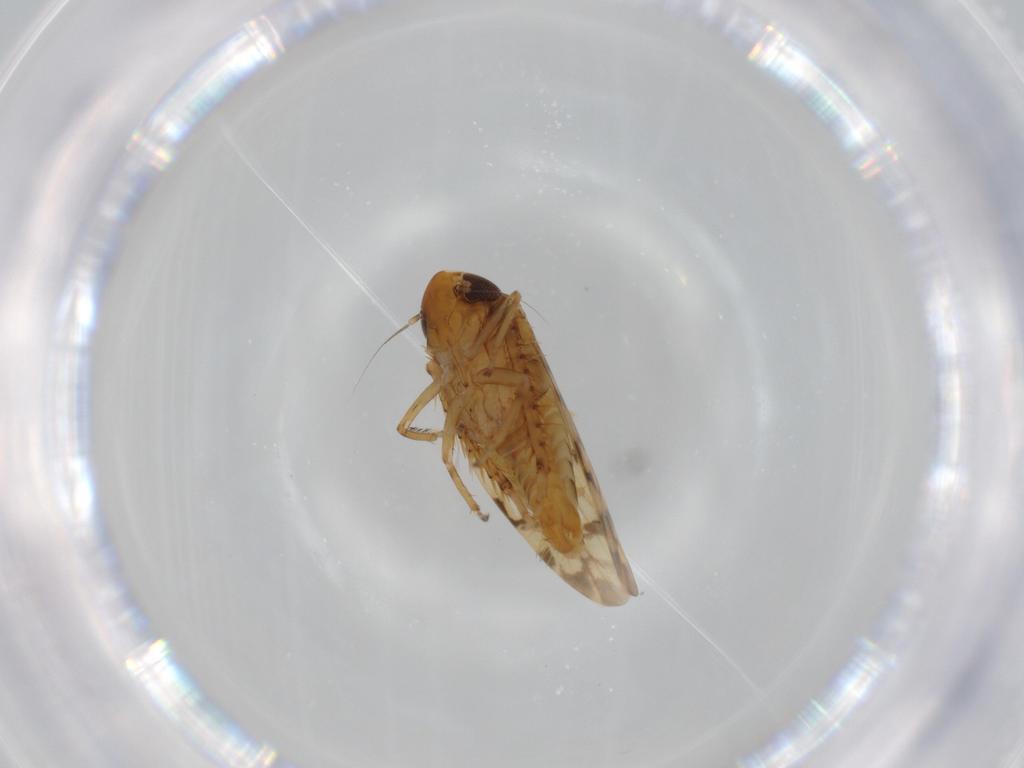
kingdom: Animalia
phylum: Arthropoda
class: Insecta
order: Hemiptera
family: Cicadellidae
